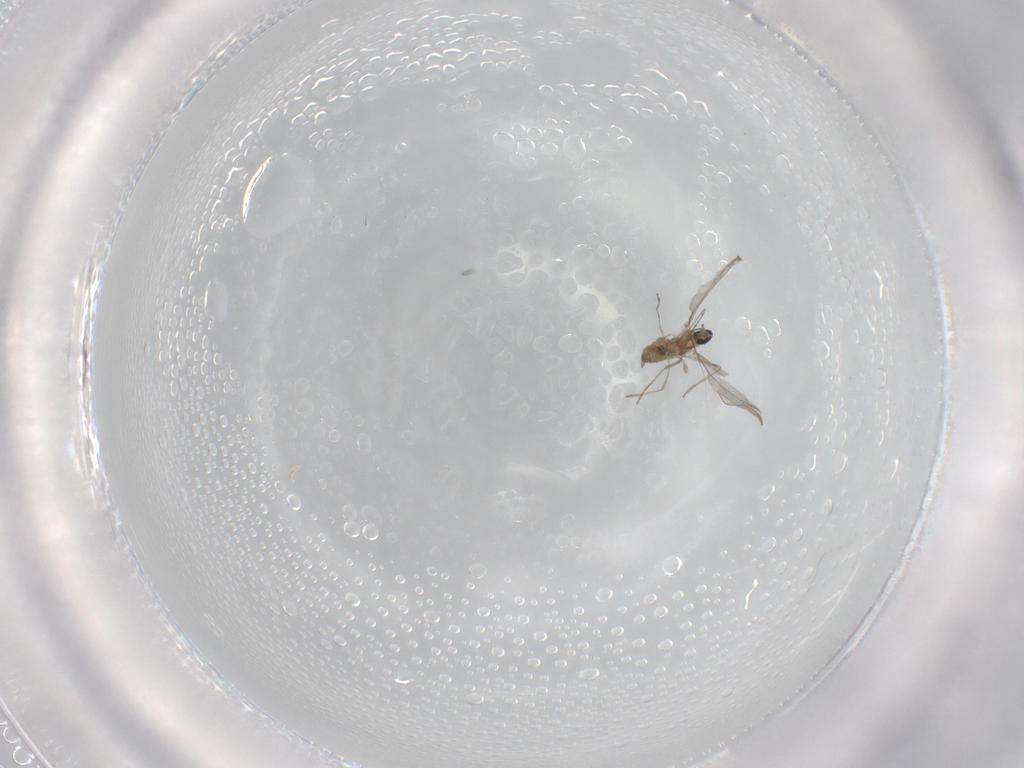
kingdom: Animalia
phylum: Arthropoda
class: Insecta
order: Diptera
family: Cecidomyiidae
